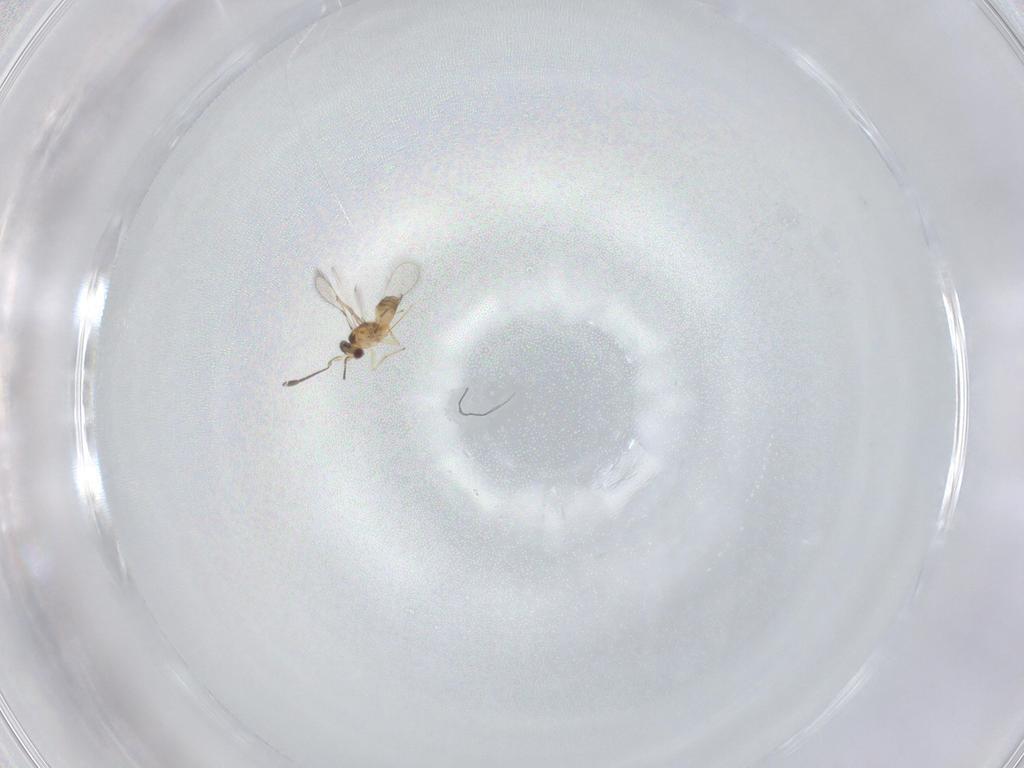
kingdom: Animalia
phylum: Arthropoda
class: Insecta
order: Hymenoptera
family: Mymaridae
